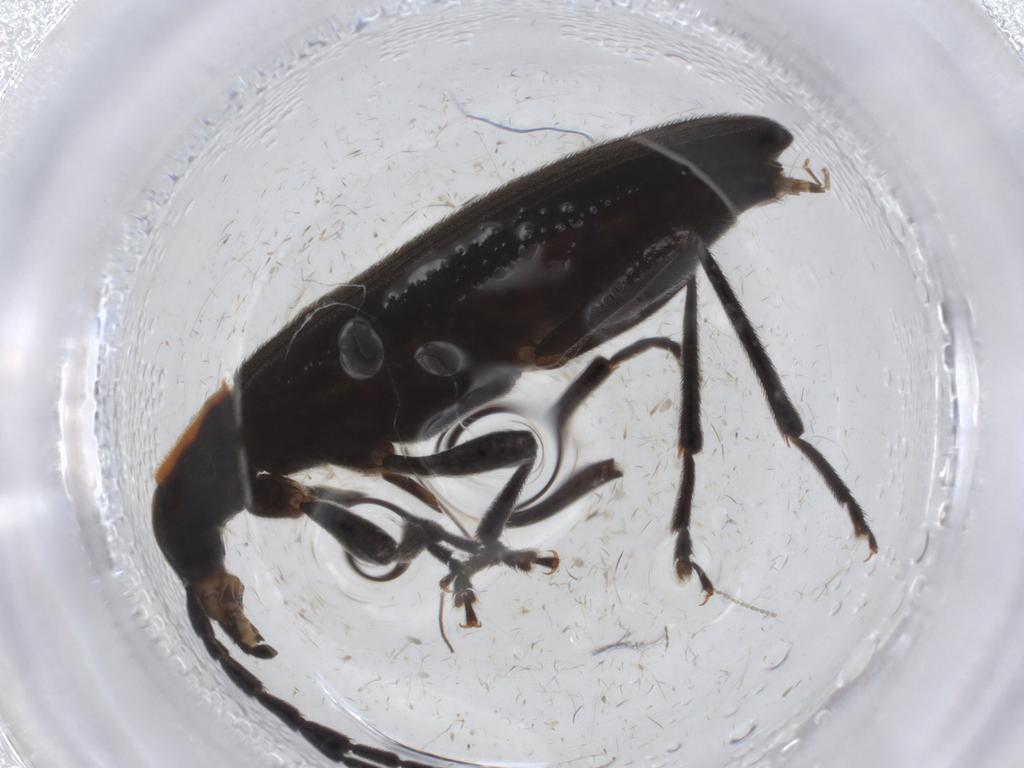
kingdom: Animalia
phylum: Arthropoda
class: Insecta
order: Coleoptera
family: Oedemeridae
